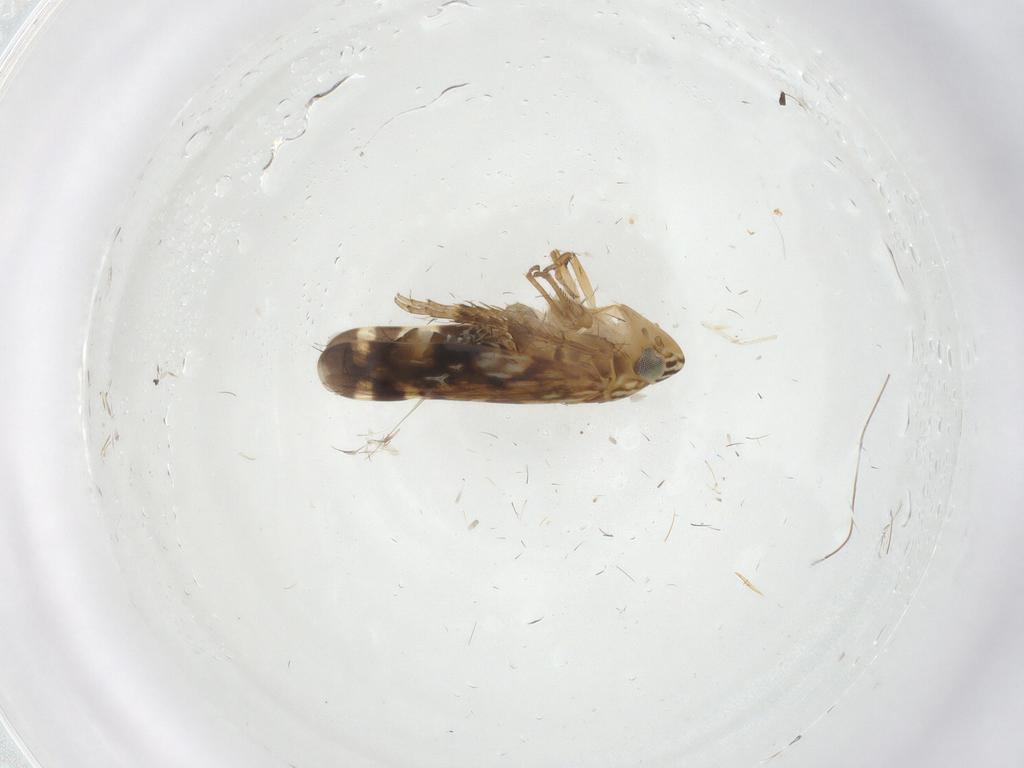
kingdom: Animalia
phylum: Arthropoda
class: Insecta
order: Hemiptera
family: Cicadellidae
